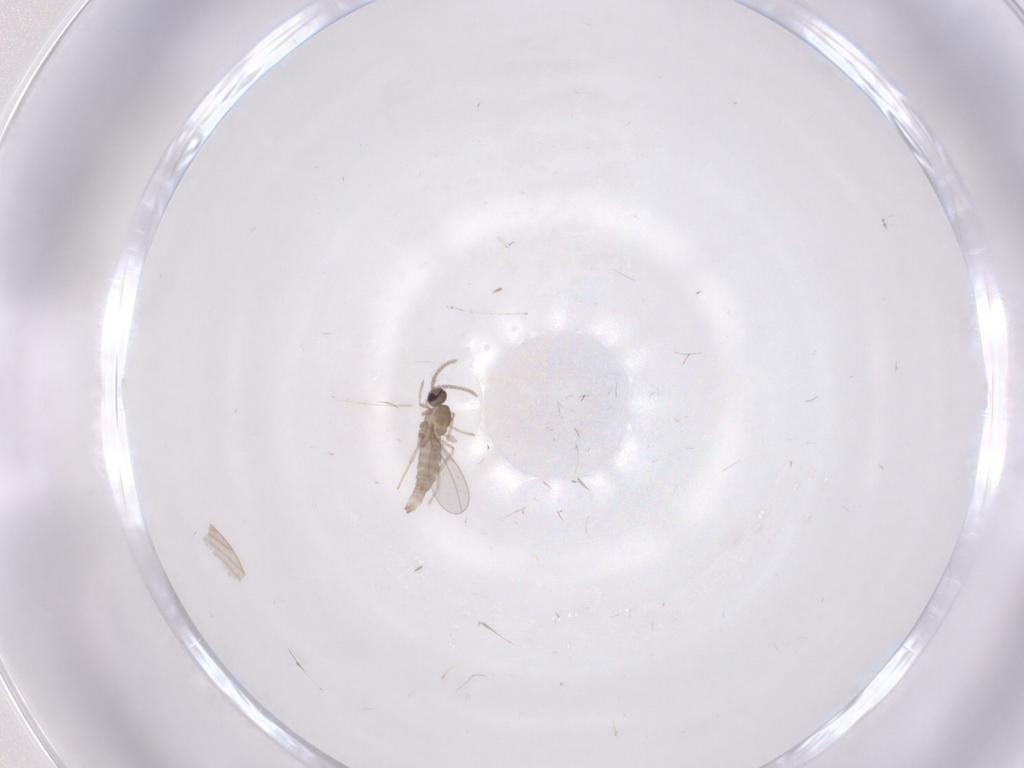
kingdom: Animalia
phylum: Arthropoda
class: Insecta
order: Diptera
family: Cecidomyiidae
